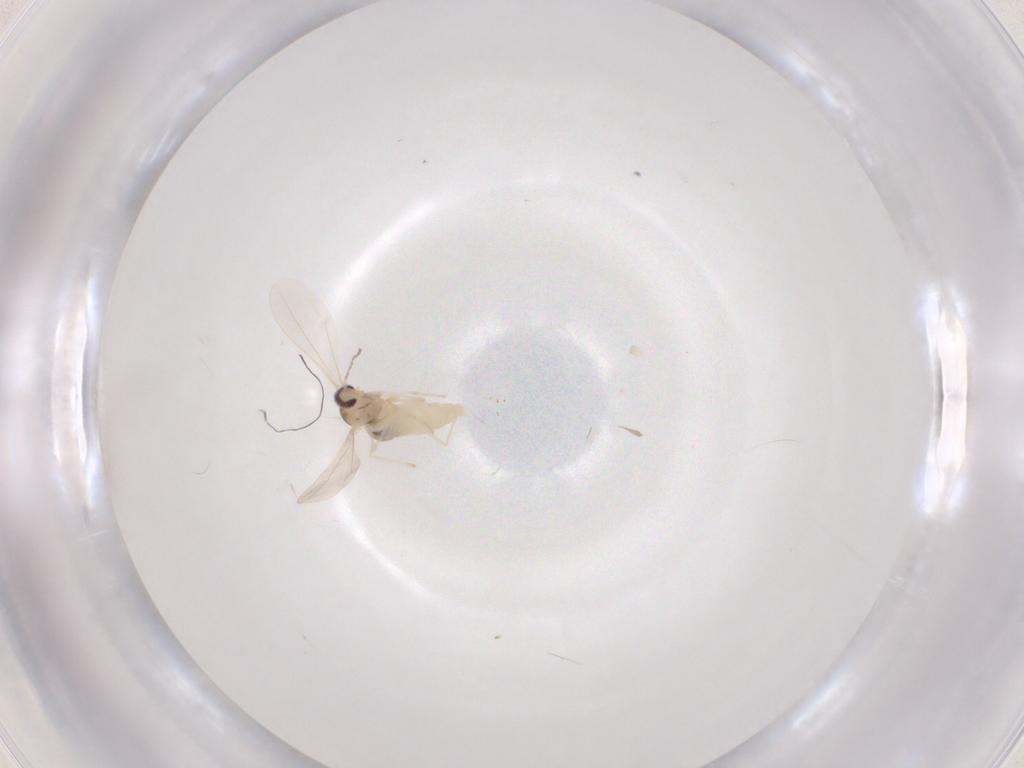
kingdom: Animalia
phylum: Arthropoda
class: Insecta
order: Diptera
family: Cecidomyiidae
